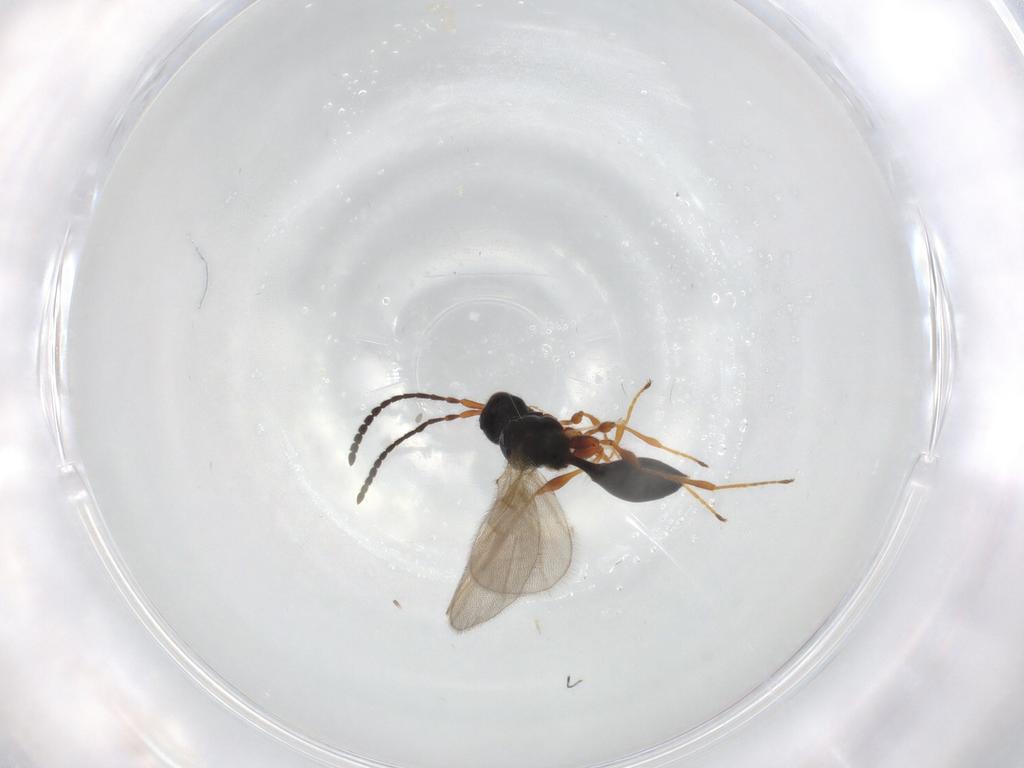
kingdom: Animalia
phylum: Arthropoda
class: Insecta
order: Hymenoptera
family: Diapriidae
